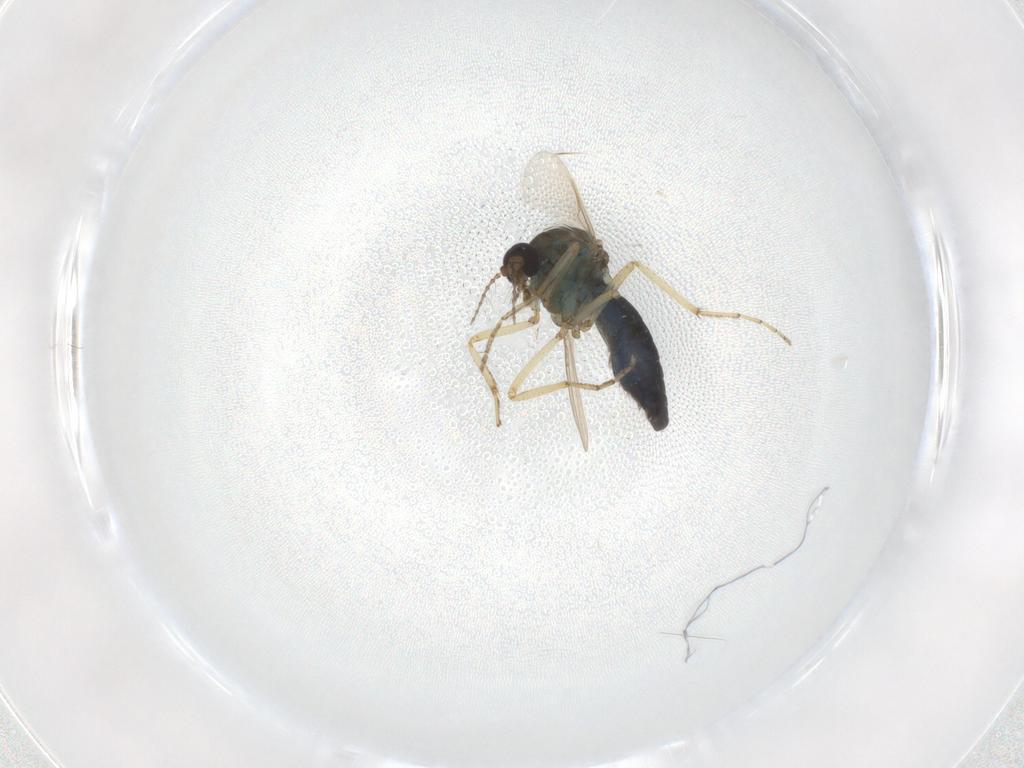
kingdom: Animalia
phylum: Arthropoda
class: Insecta
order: Diptera
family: Ceratopogonidae
